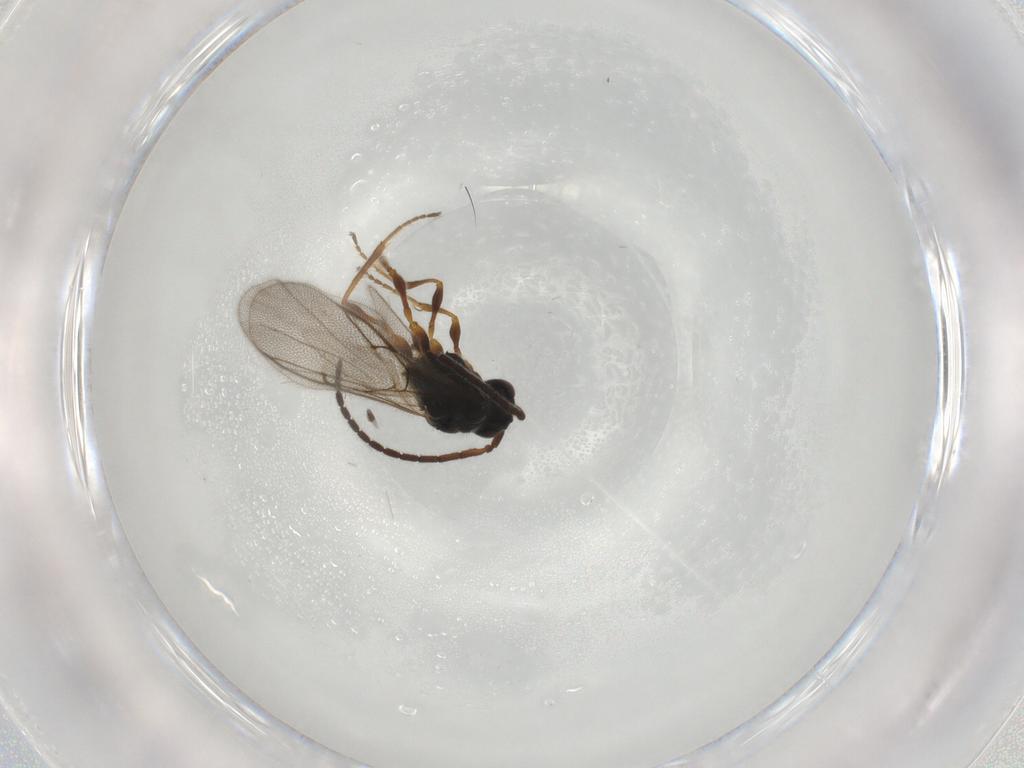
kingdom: Animalia
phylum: Arthropoda
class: Insecta
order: Hymenoptera
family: Diapriidae
